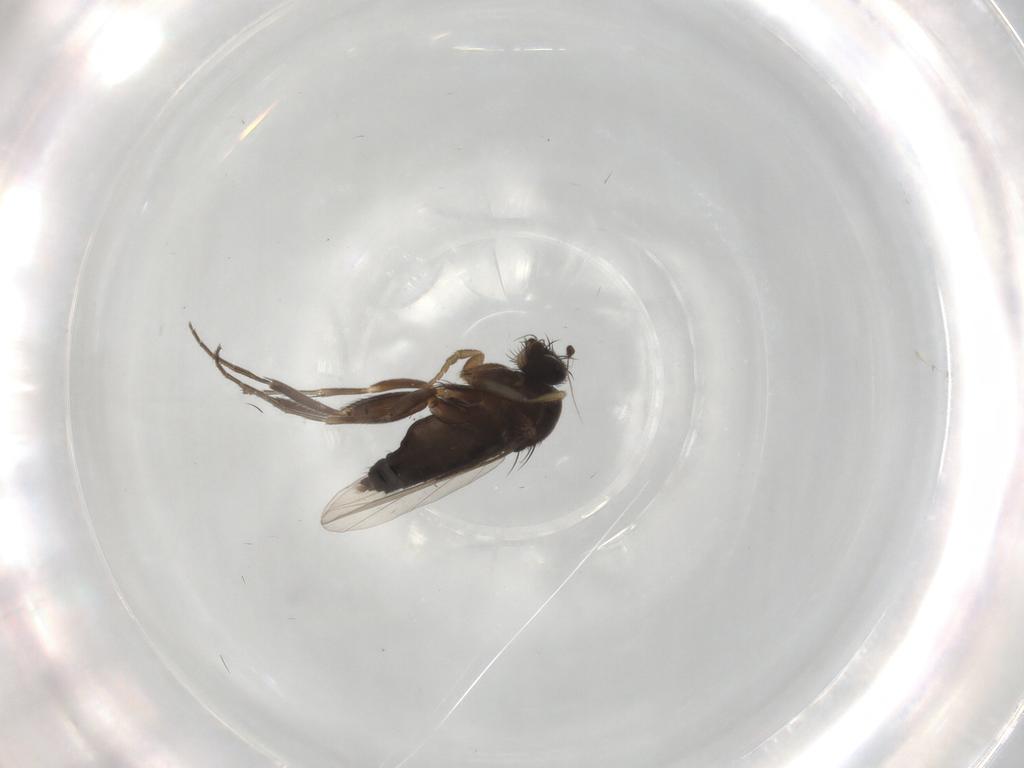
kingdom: Animalia
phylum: Arthropoda
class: Insecta
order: Diptera
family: Phoridae
